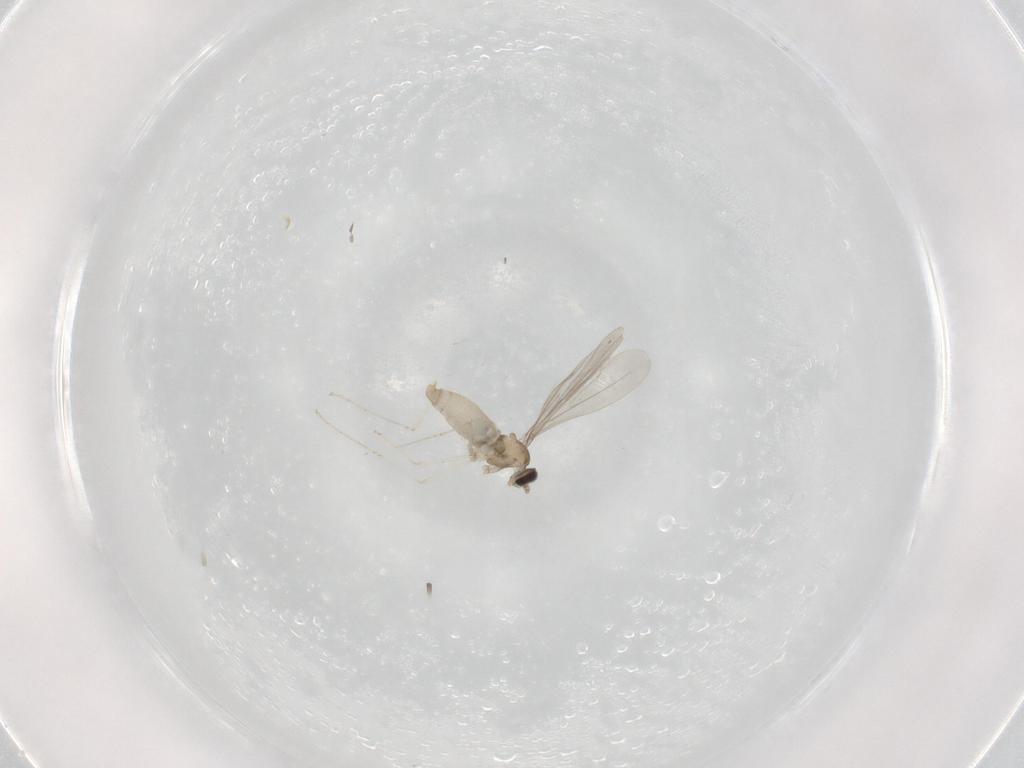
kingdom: Animalia
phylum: Arthropoda
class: Insecta
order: Diptera
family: Cecidomyiidae
